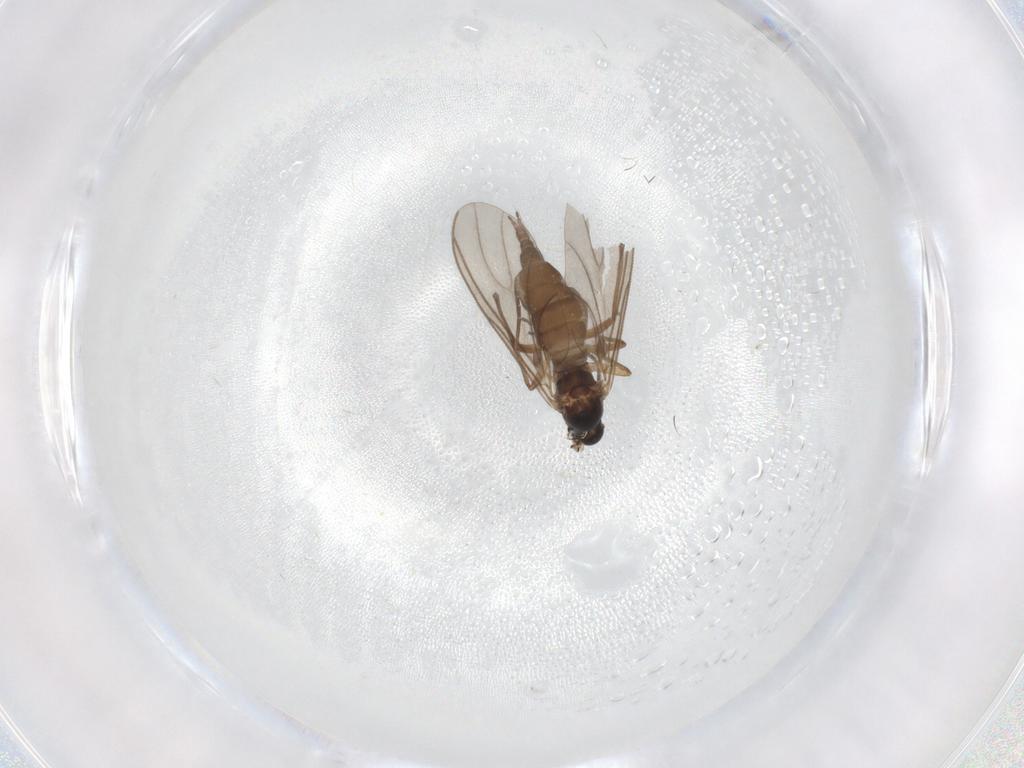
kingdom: Animalia
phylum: Arthropoda
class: Insecta
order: Diptera
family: Sciaridae
